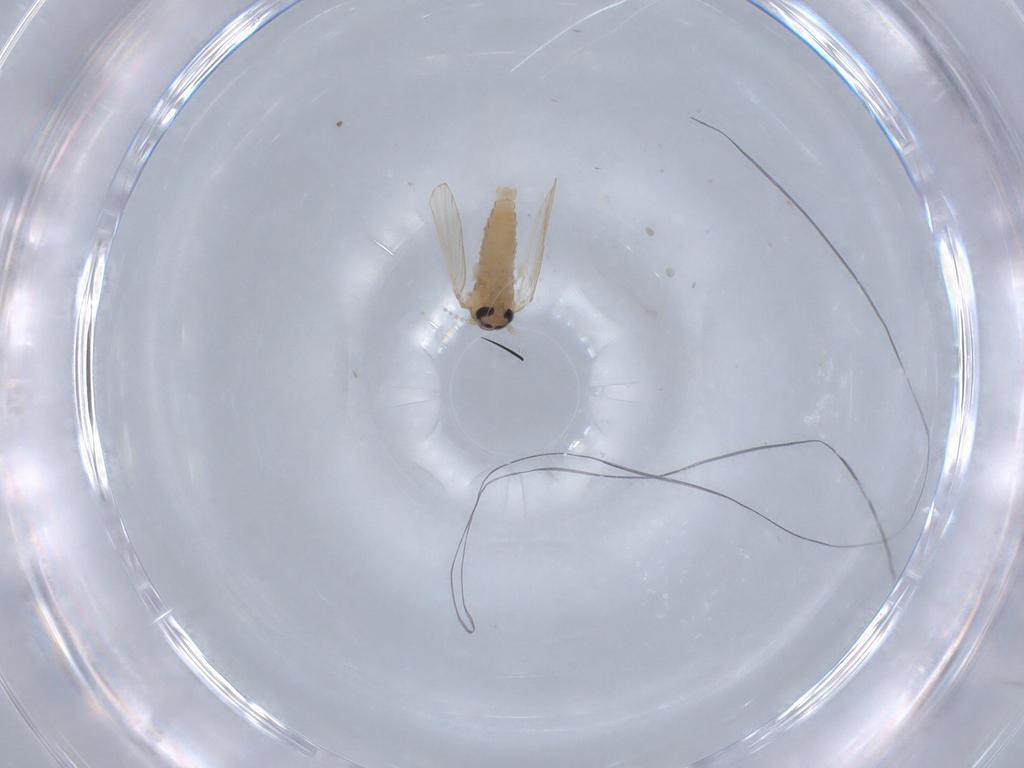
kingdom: Animalia
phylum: Arthropoda
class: Insecta
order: Diptera
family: Psychodidae
